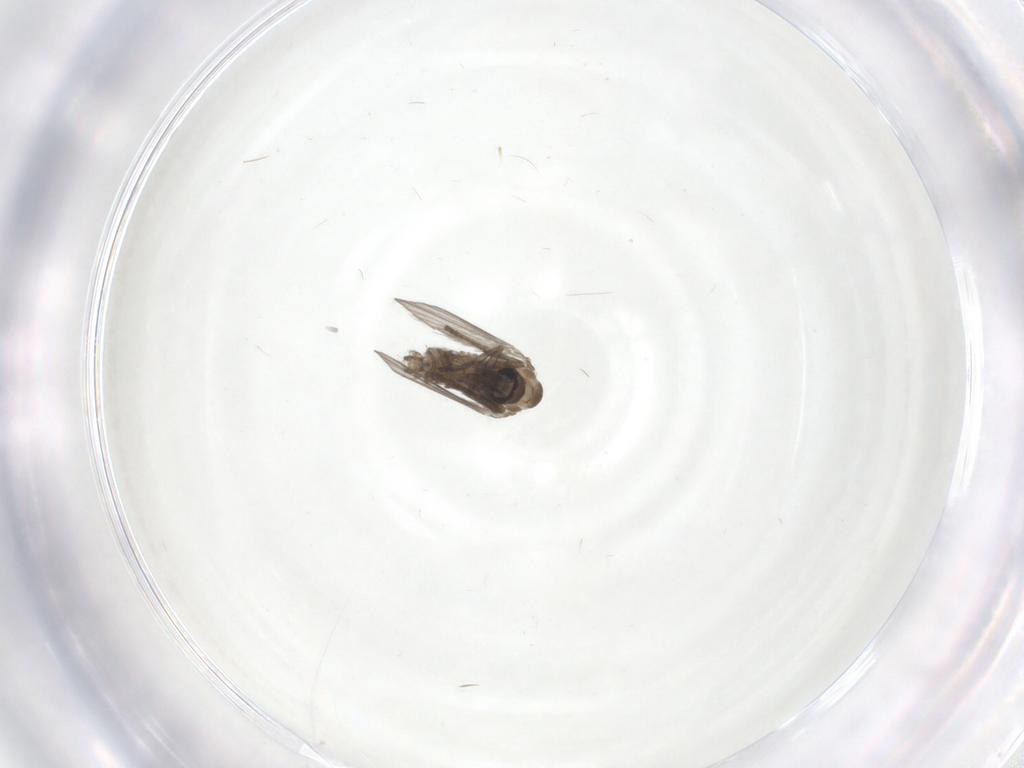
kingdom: Animalia
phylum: Arthropoda
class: Insecta
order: Diptera
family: Psychodidae
